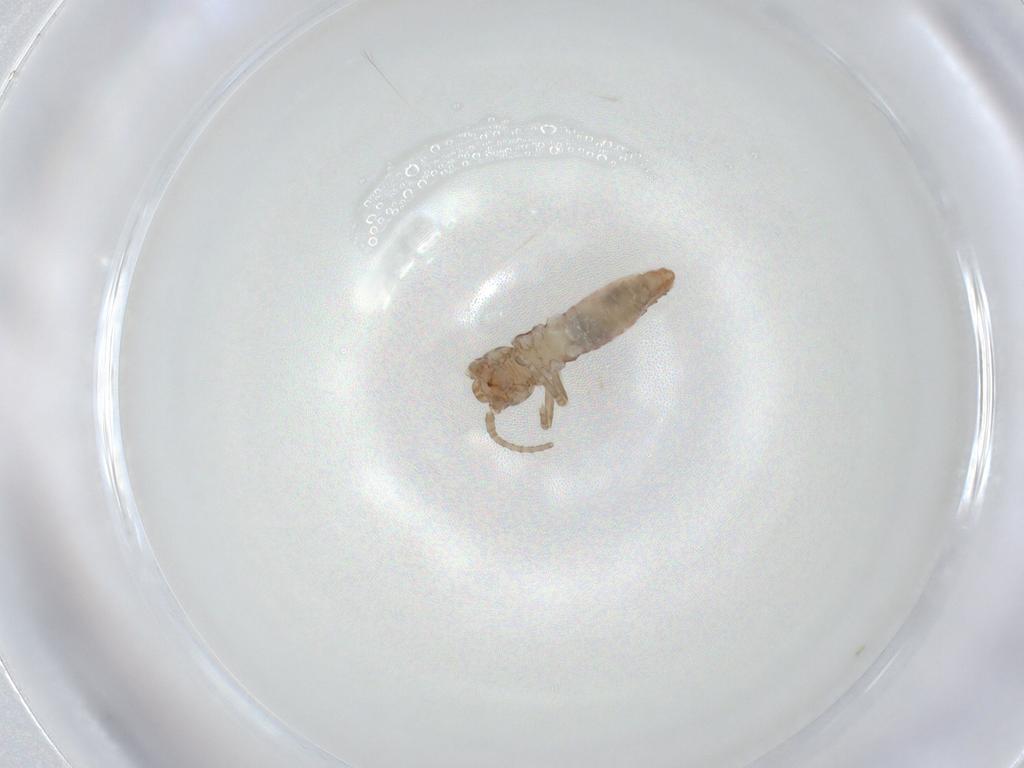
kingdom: Animalia
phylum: Arthropoda
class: Insecta
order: Orthoptera
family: Mogoplistidae
